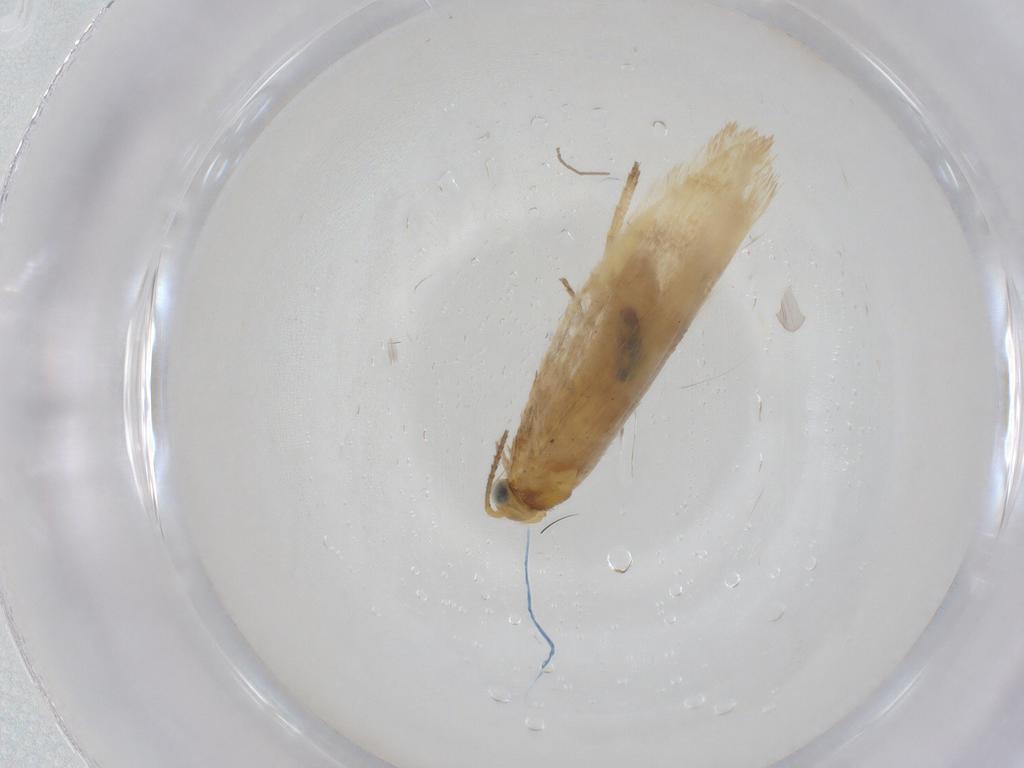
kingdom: Animalia
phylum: Arthropoda
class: Insecta
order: Lepidoptera
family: Argyresthiidae
